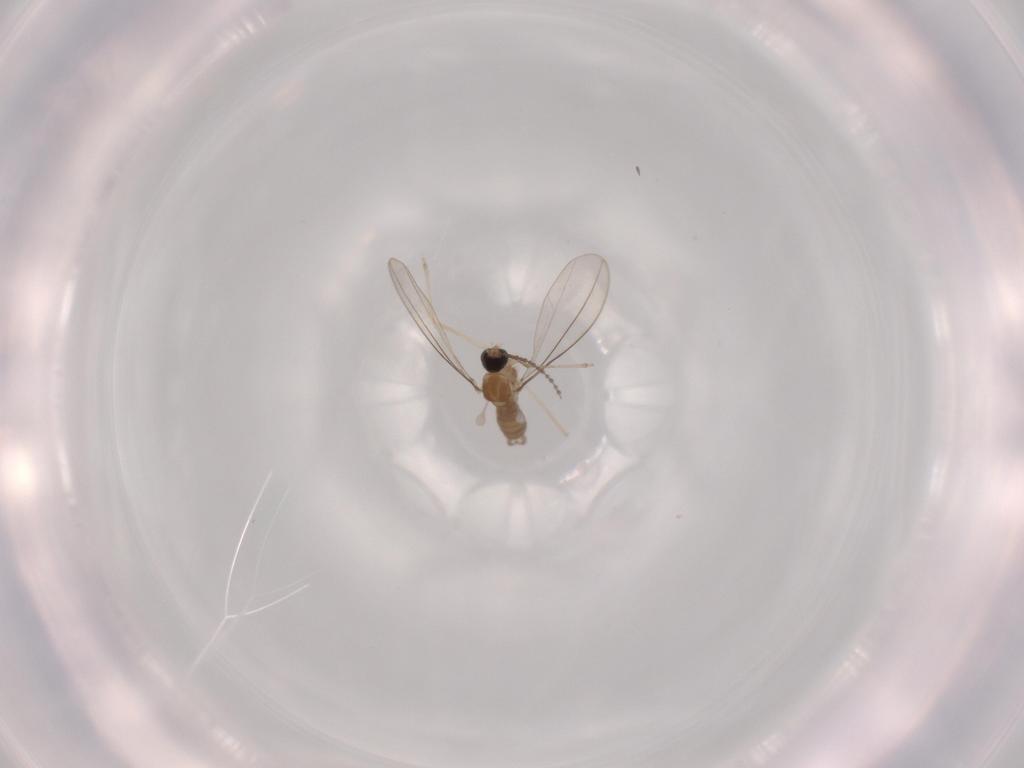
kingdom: Animalia
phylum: Arthropoda
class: Insecta
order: Diptera
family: Cecidomyiidae
